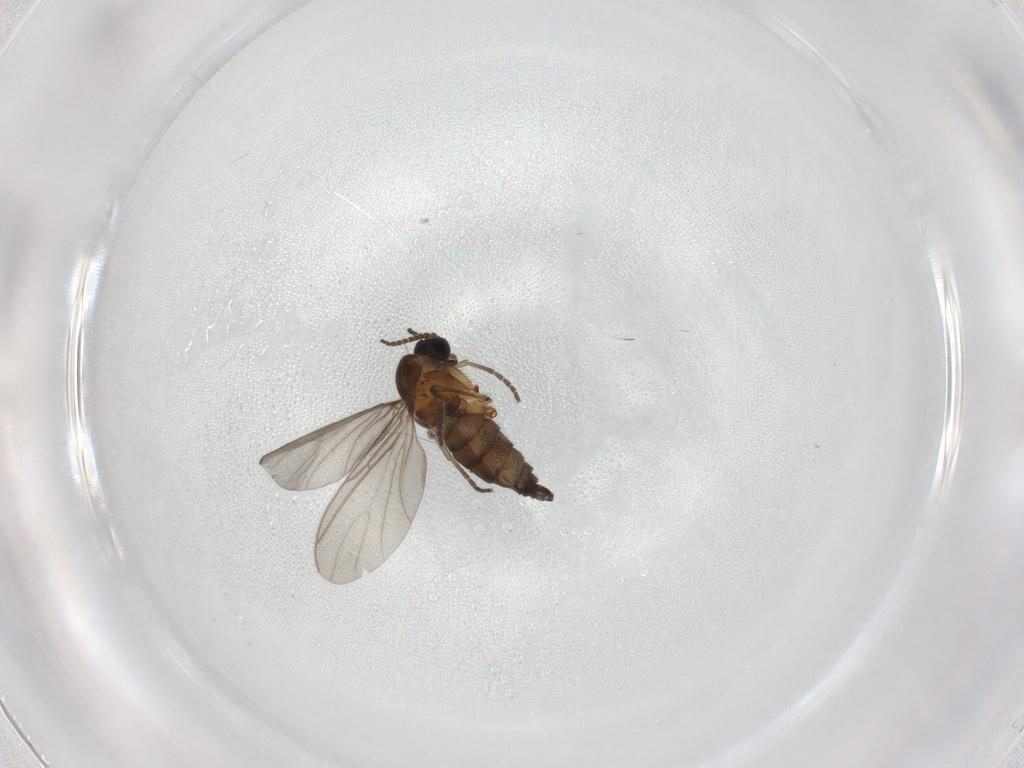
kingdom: Animalia
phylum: Arthropoda
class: Insecta
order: Diptera
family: Sciaridae
